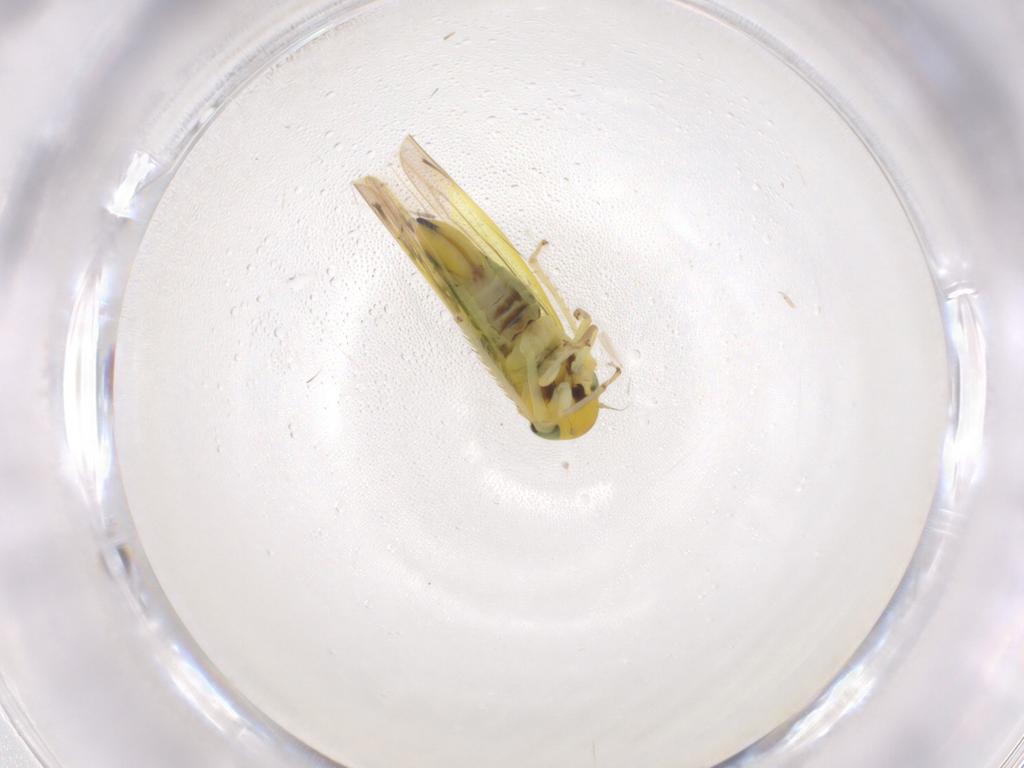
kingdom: Animalia
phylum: Arthropoda
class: Insecta
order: Hemiptera
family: Cicadellidae
